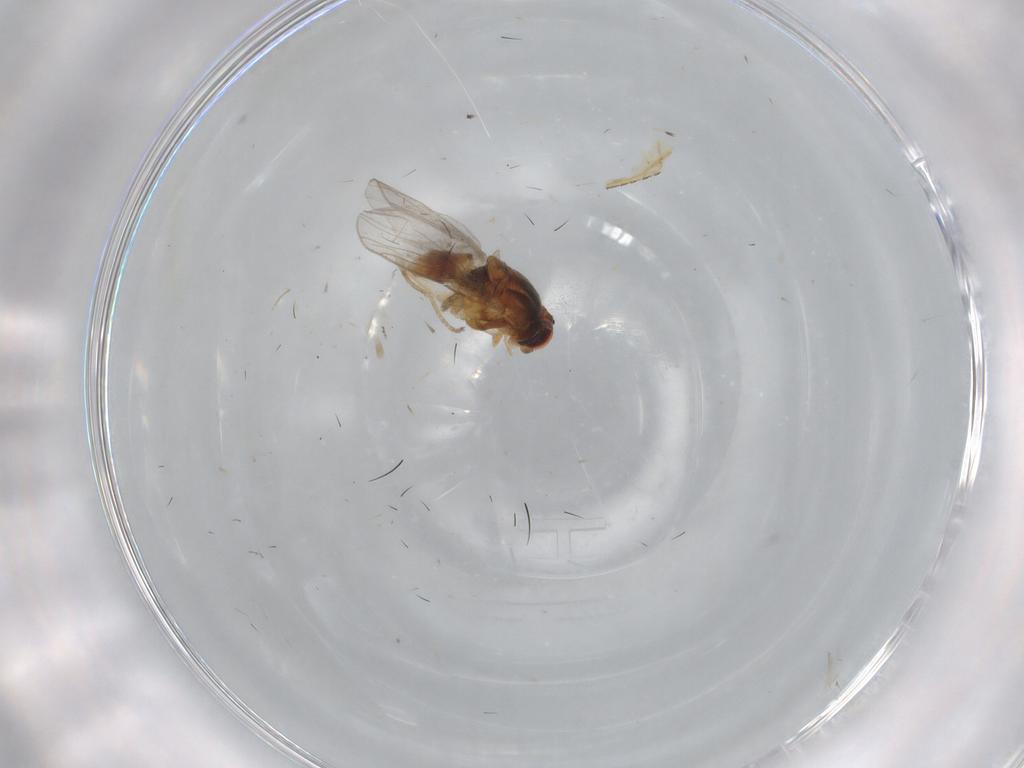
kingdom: Animalia
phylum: Arthropoda
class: Insecta
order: Diptera
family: Chloropidae
